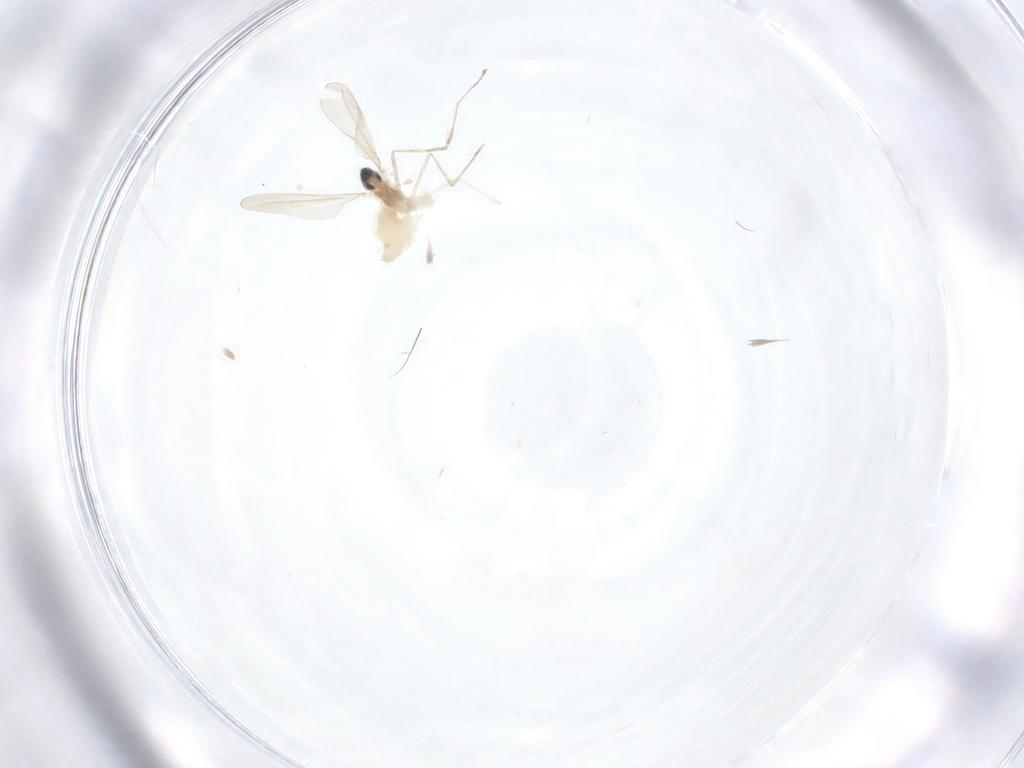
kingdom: Animalia
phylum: Arthropoda
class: Insecta
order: Diptera
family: Cecidomyiidae
